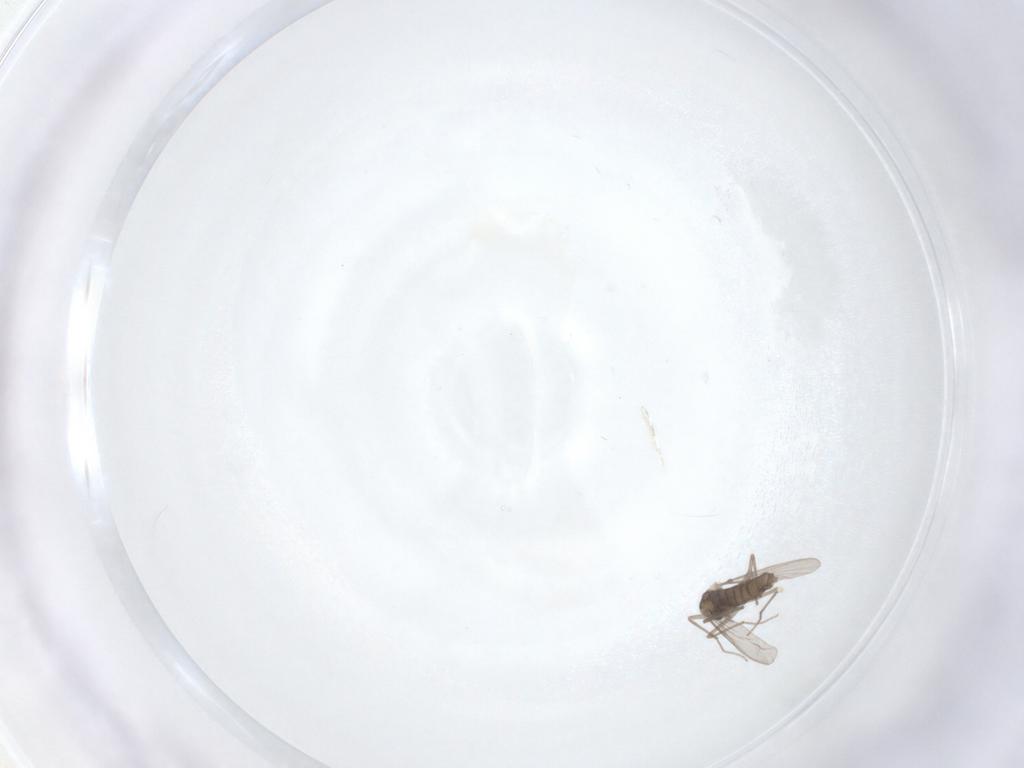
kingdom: Animalia
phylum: Arthropoda
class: Insecta
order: Diptera
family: Chironomidae
